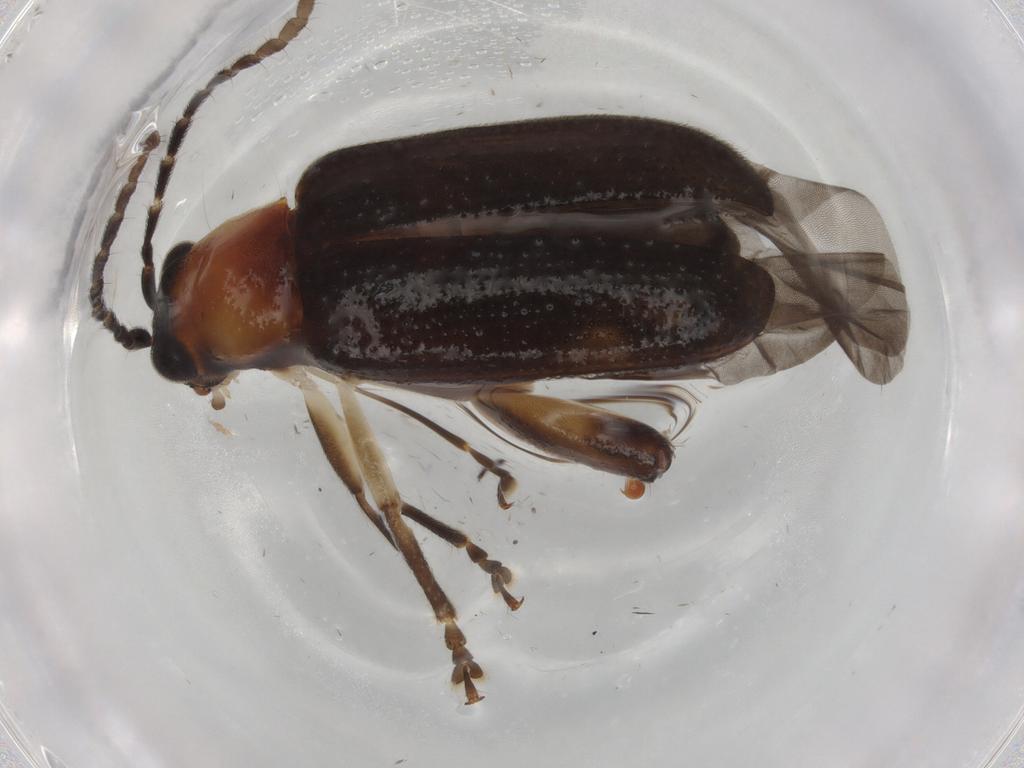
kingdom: Animalia
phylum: Arthropoda
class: Insecta
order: Coleoptera
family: Chrysomelidae
